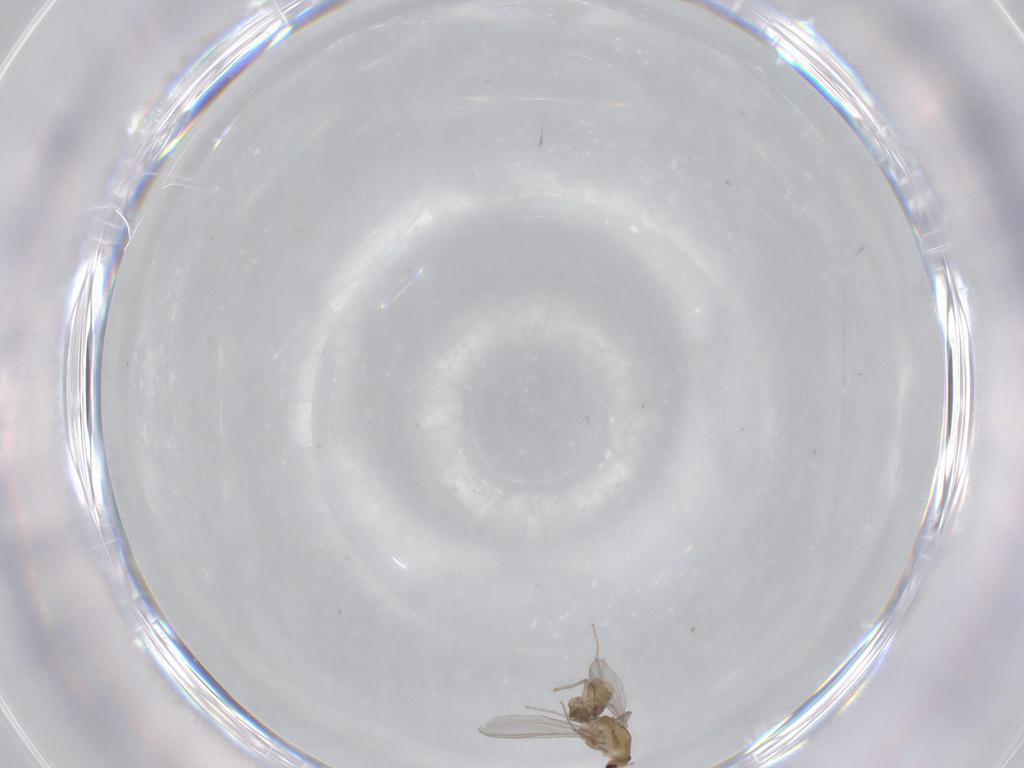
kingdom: Animalia
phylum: Arthropoda
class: Insecta
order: Diptera
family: Chironomidae
